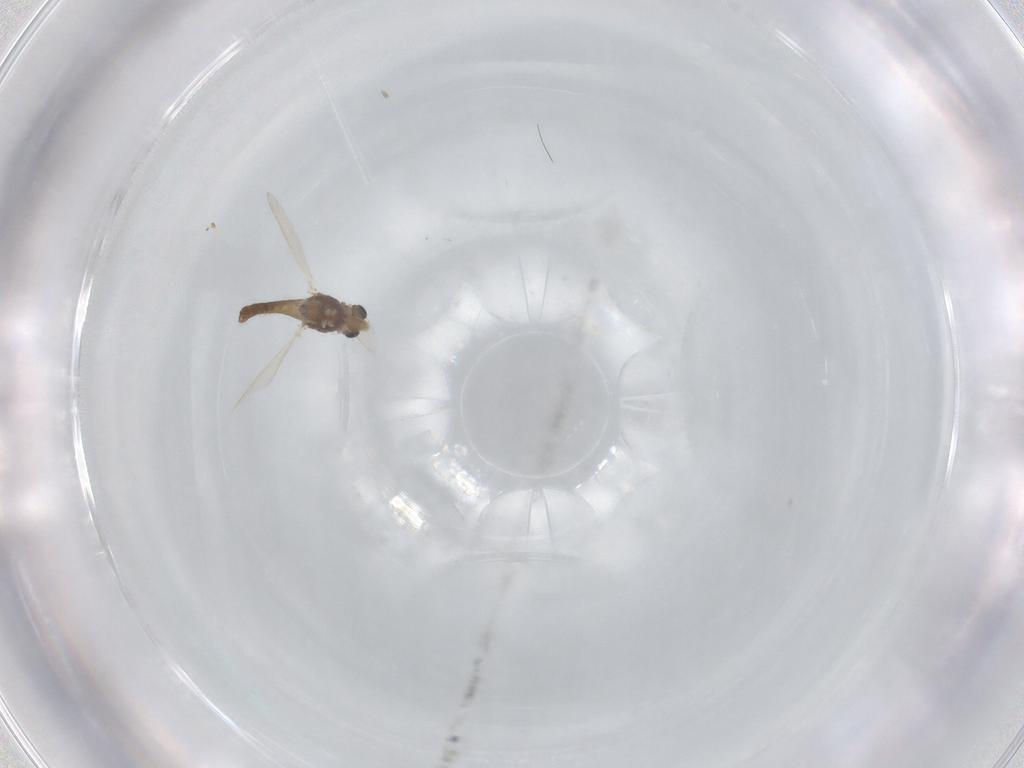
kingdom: Animalia
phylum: Arthropoda
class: Insecta
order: Diptera
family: Chironomidae
